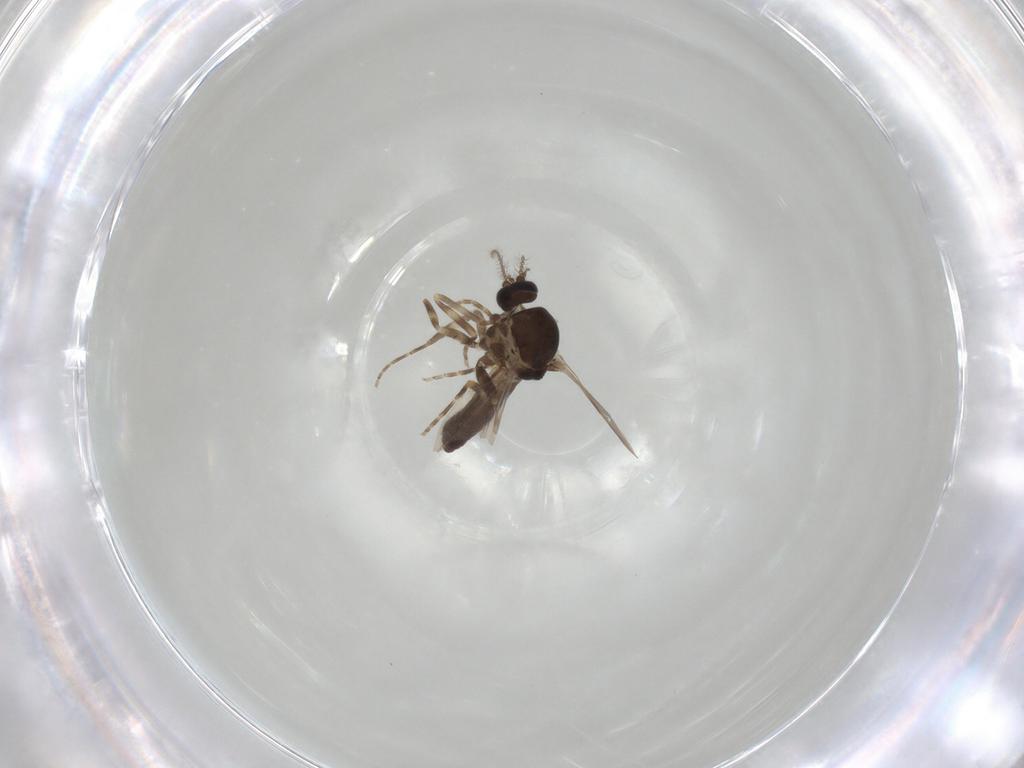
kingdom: Animalia
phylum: Arthropoda
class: Insecta
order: Diptera
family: Ceratopogonidae
